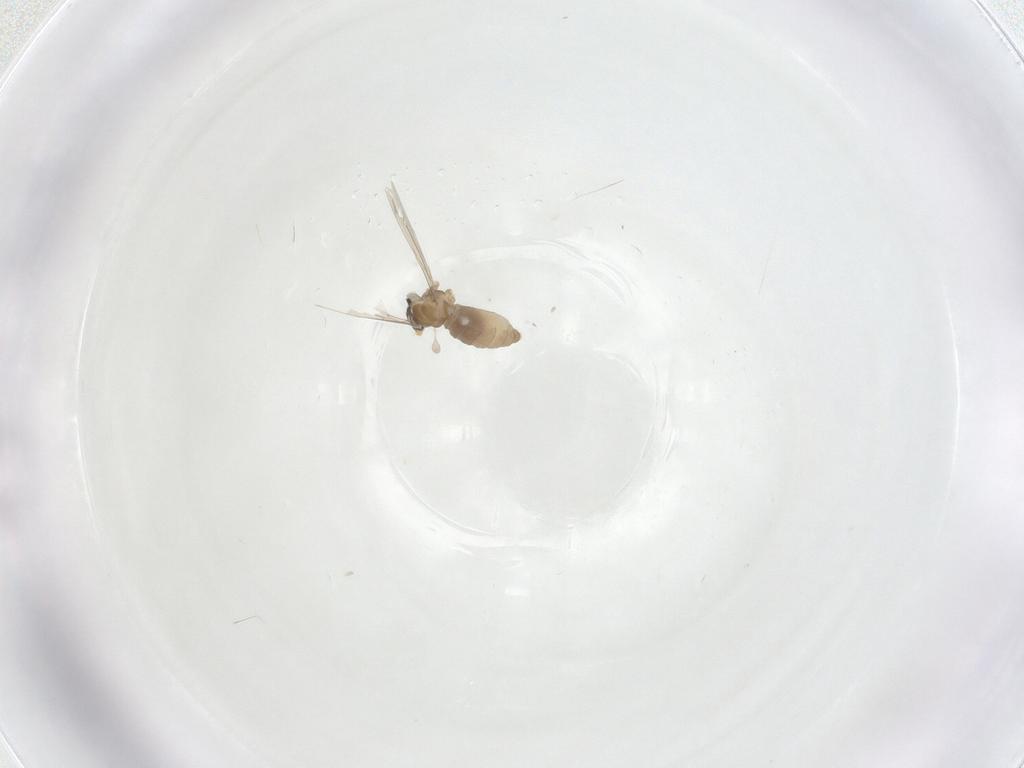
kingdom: Animalia
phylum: Arthropoda
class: Insecta
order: Diptera
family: Cecidomyiidae
